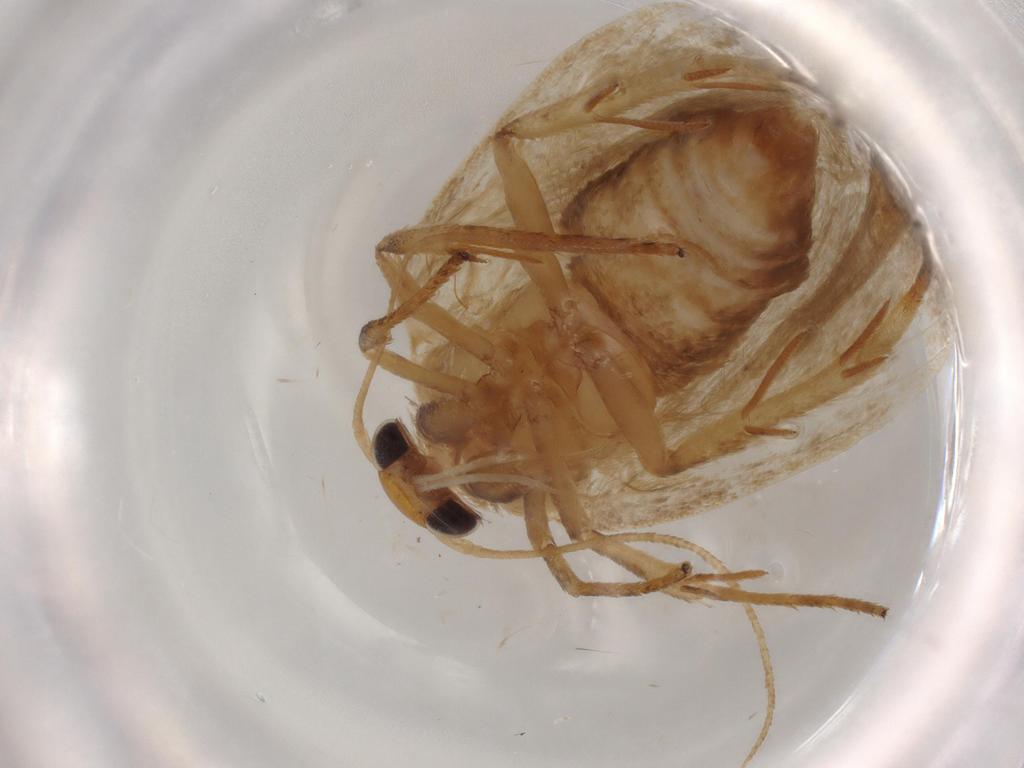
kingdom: Animalia
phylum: Arthropoda
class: Insecta
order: Lepidoptera
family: Depressariidae
